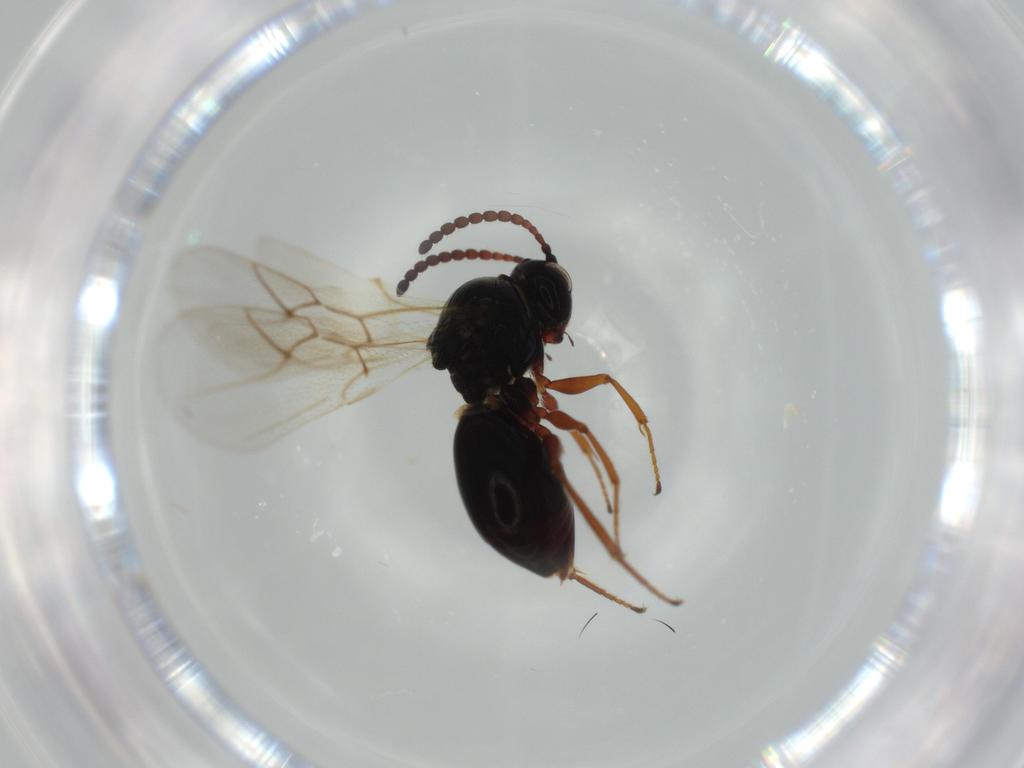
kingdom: Animalia
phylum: Arthropoda
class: Insecta
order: Hymenoptera
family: Figitidae
